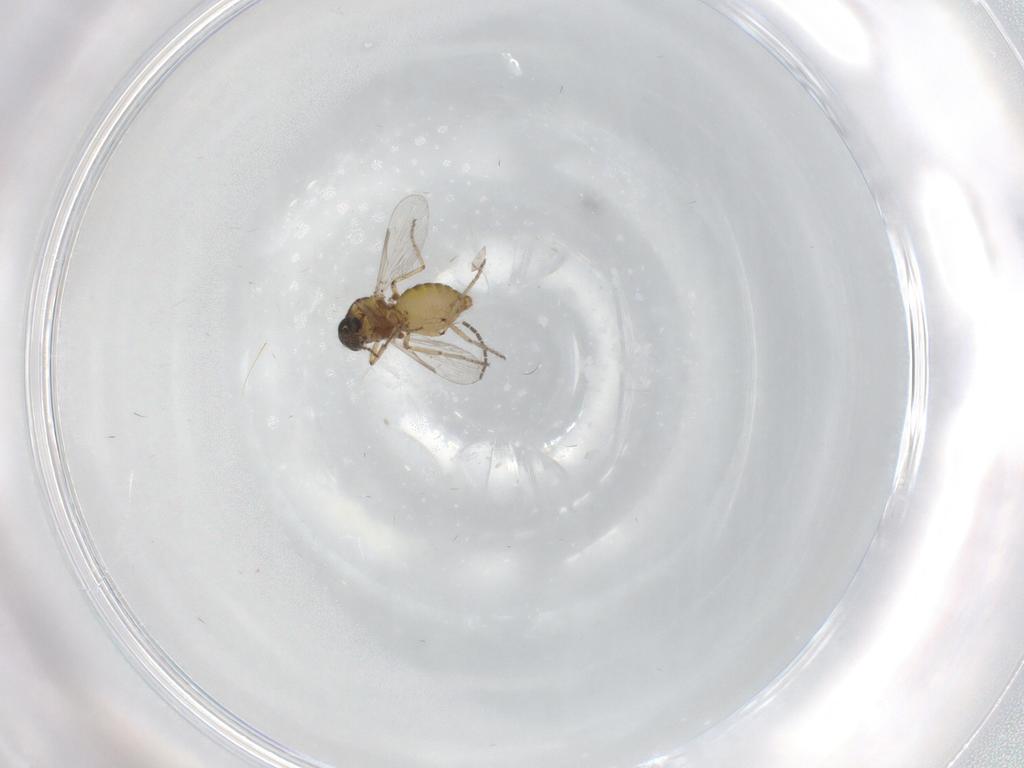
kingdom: Animalia
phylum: Arthropoda
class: Insecta
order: Diptera
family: Ceratopogonidae
